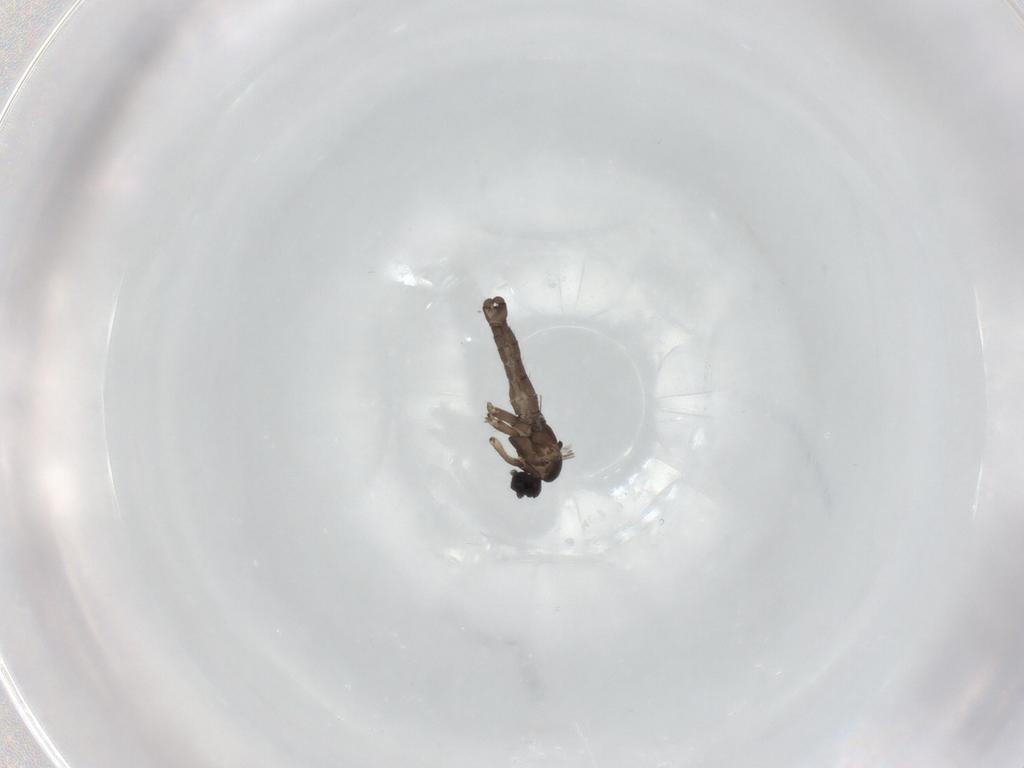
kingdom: Animalia
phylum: Arthropoda
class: Insecta
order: Diptera
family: Sciaridae
